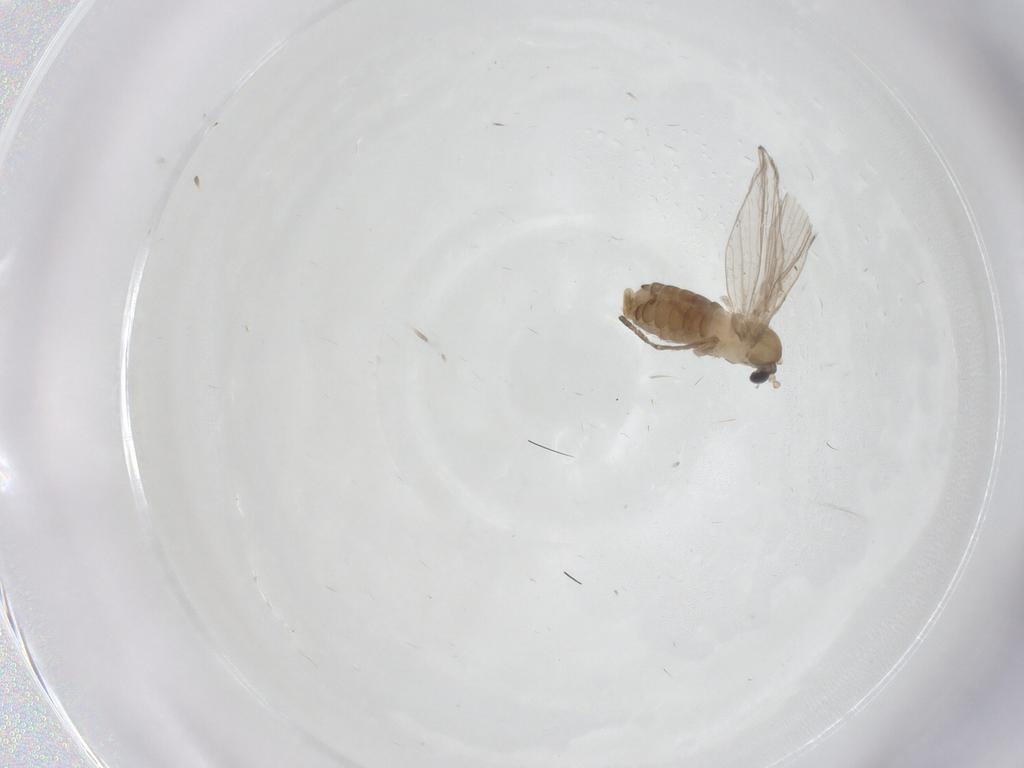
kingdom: Animalia
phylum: Arthropoda
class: Insecta
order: Diptera
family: Psychodidae
